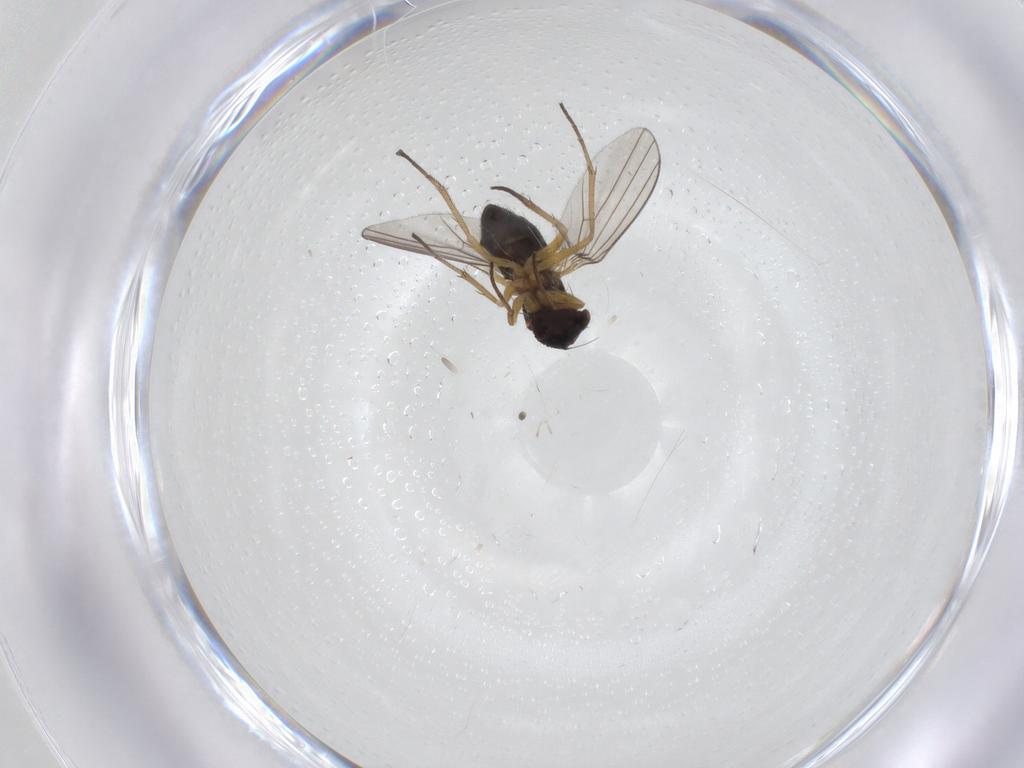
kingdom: Animalia
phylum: Arthropoda
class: Insecta
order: Diptera
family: Dolichopodidae
